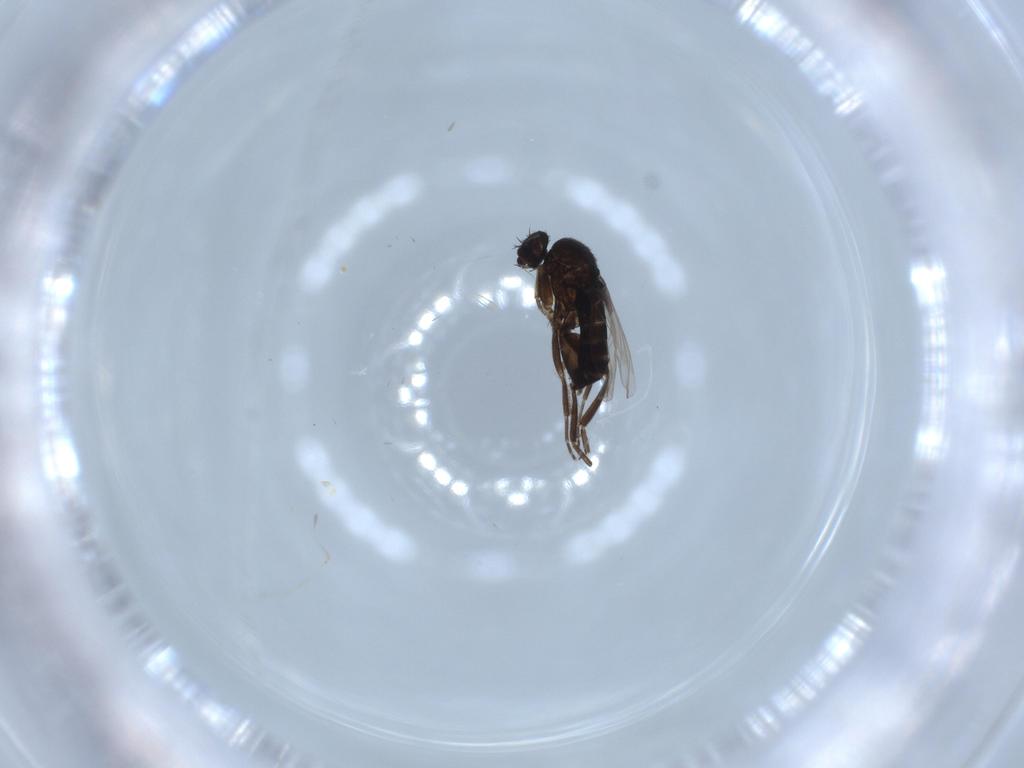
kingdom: Animalia
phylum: Arthropoda
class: Insecta
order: Diptera
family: Phoridae
